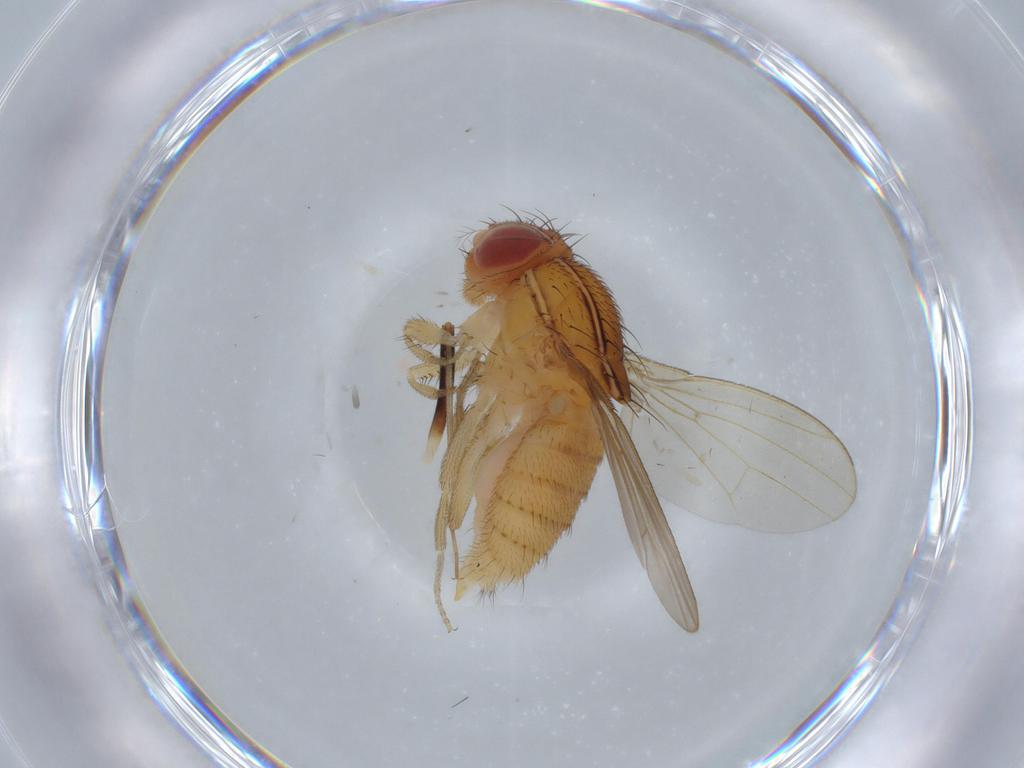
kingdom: Animalia
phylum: Arthropoda
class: Insecta
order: Diptera
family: Drosophilidae
